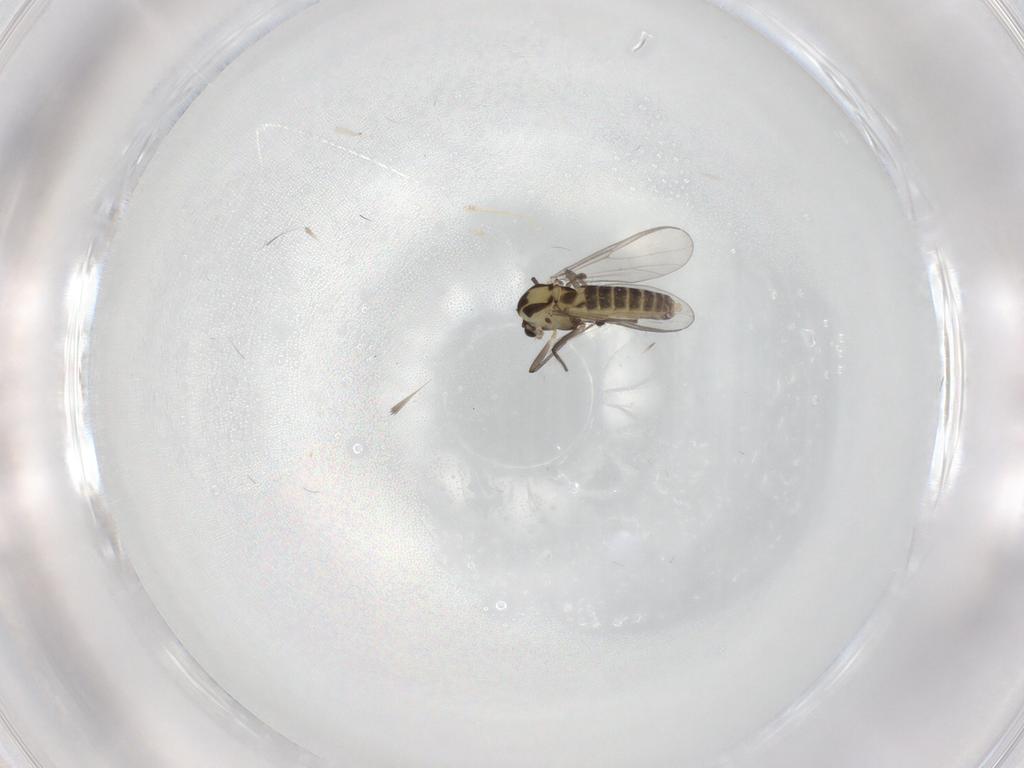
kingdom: Animalia
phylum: Arthropoda
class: Insecta
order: Diptera
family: Chironomidae
